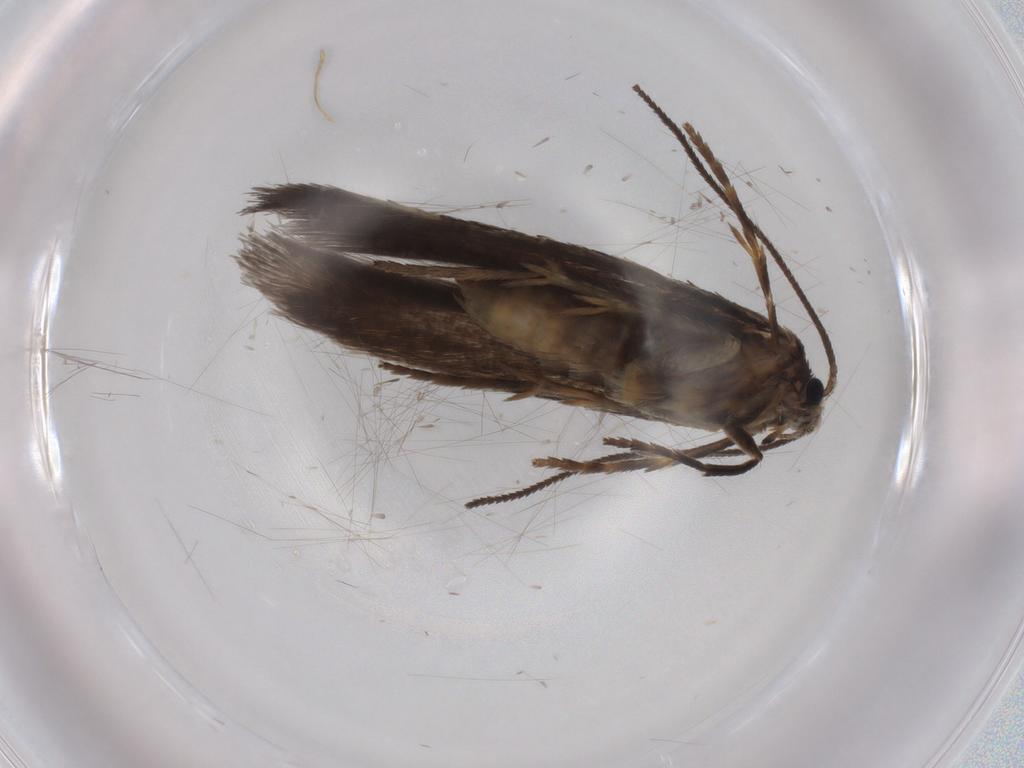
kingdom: Animalia
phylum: Arthropoda
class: Insecta
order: Lepidoptera
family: Nepticulidae
